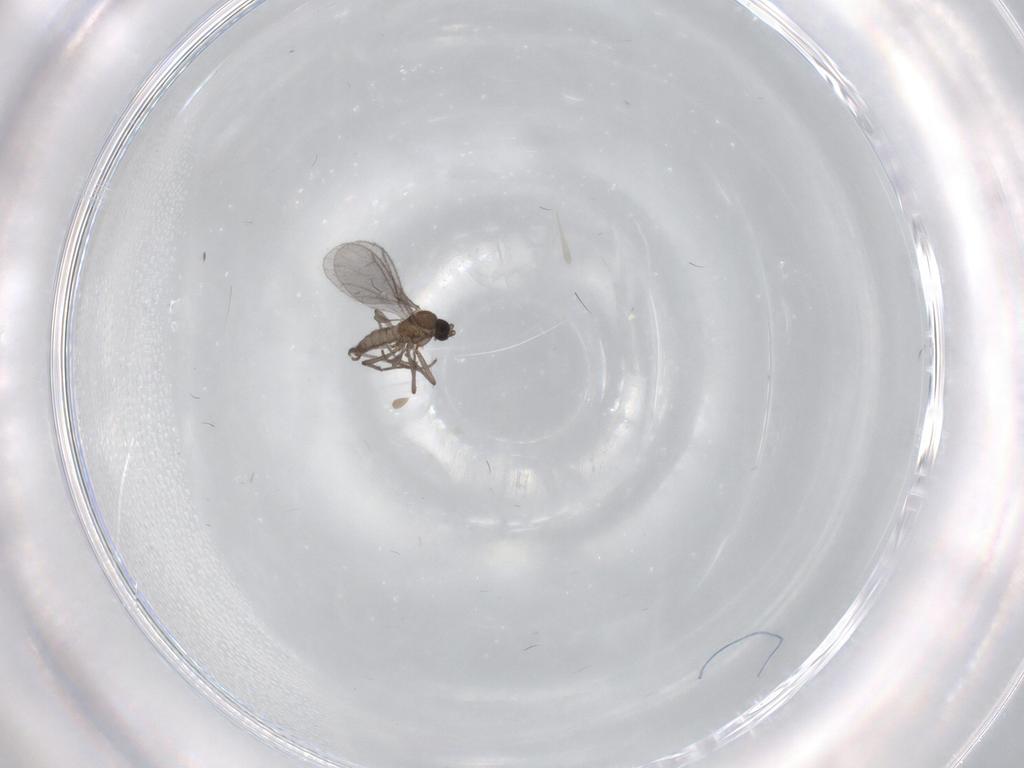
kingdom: Animalia
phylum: Arthropoda
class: Insecta
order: Diptera
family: Sciaridae
